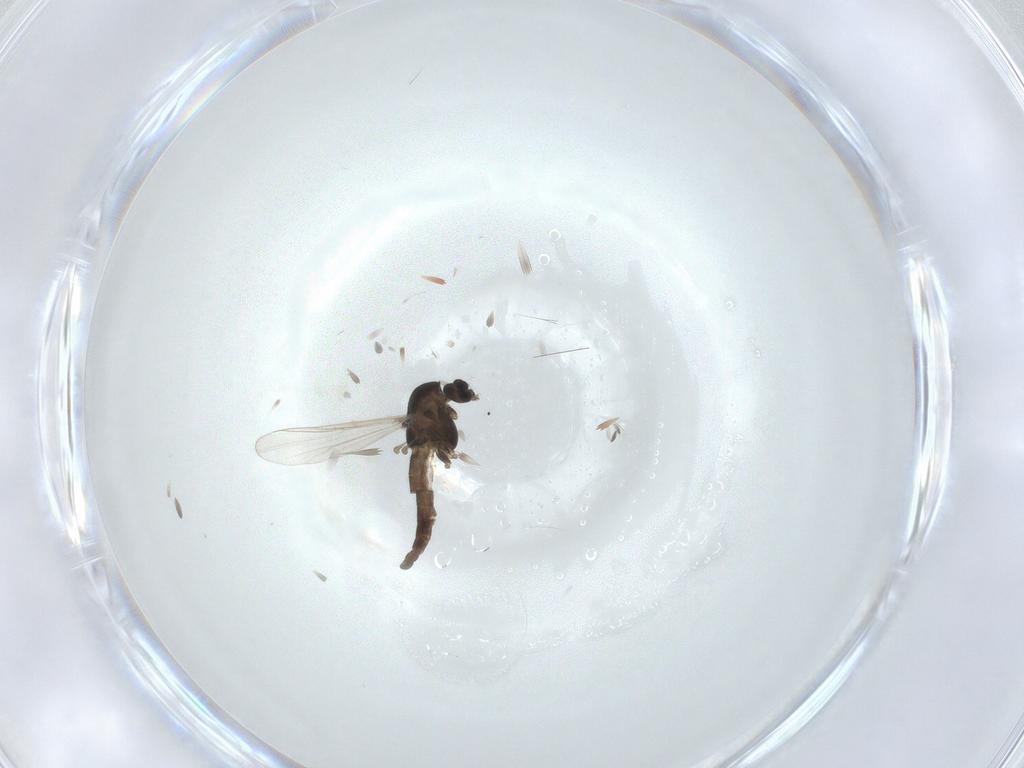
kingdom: Animalia
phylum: Arthropoda
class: Insecta
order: Diptera
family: Chironomidae
